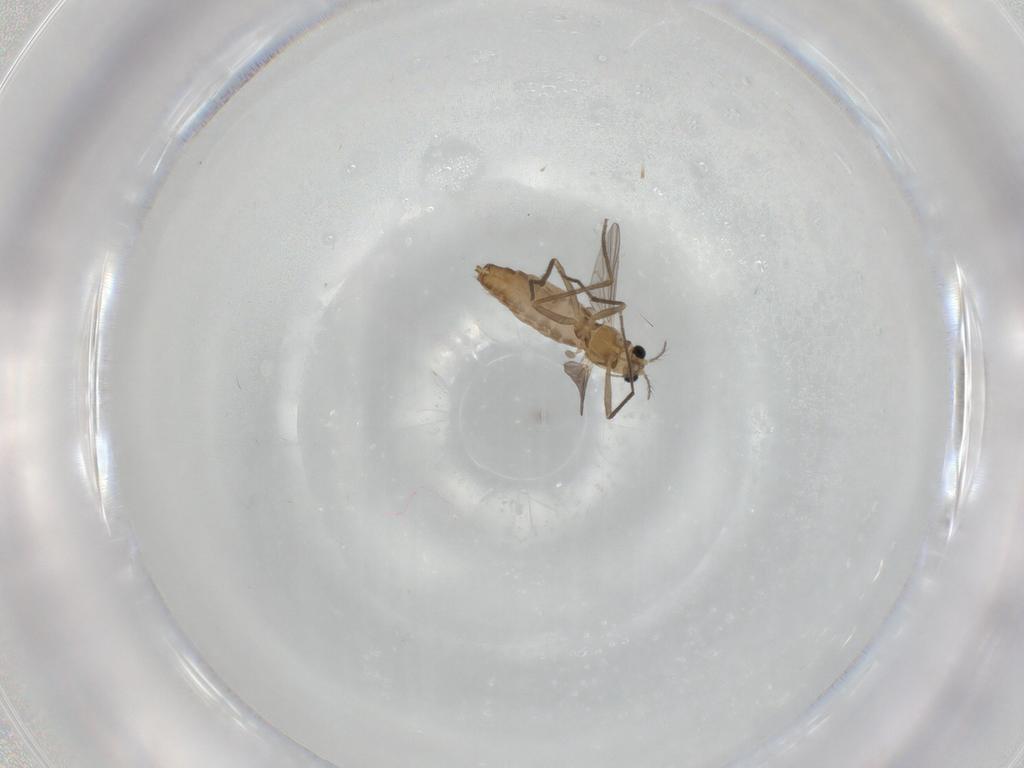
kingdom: Animalia
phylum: Arthropoda
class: Insecta
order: Diptera
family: Chironomidae
